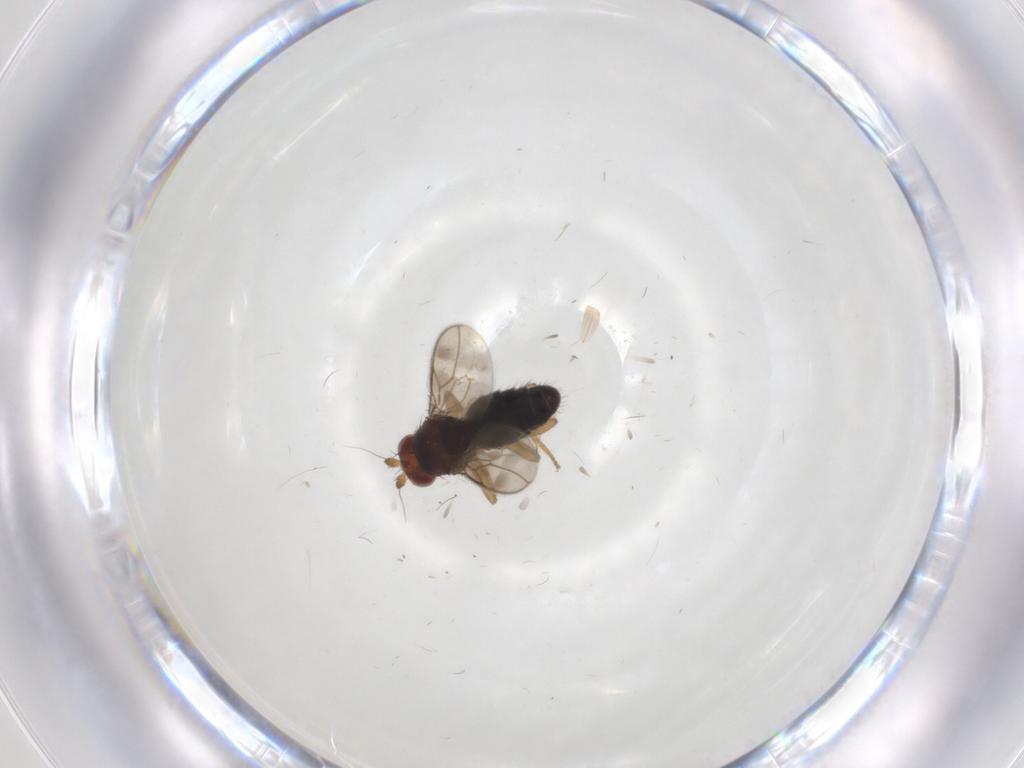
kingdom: Animalia
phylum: Arthropoda
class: Insecta
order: Diptera
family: Sphaeroceridae
